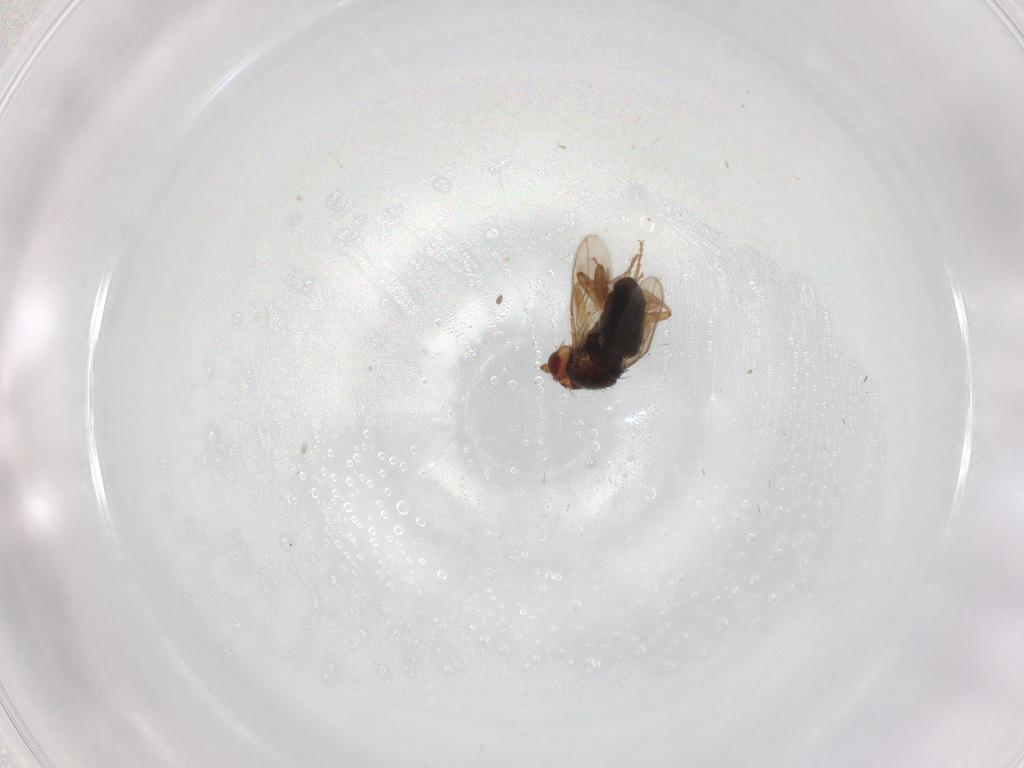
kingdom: Animalia
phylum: Arthropoda
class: Insecta
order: Diptera
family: Sphaeroceridae
